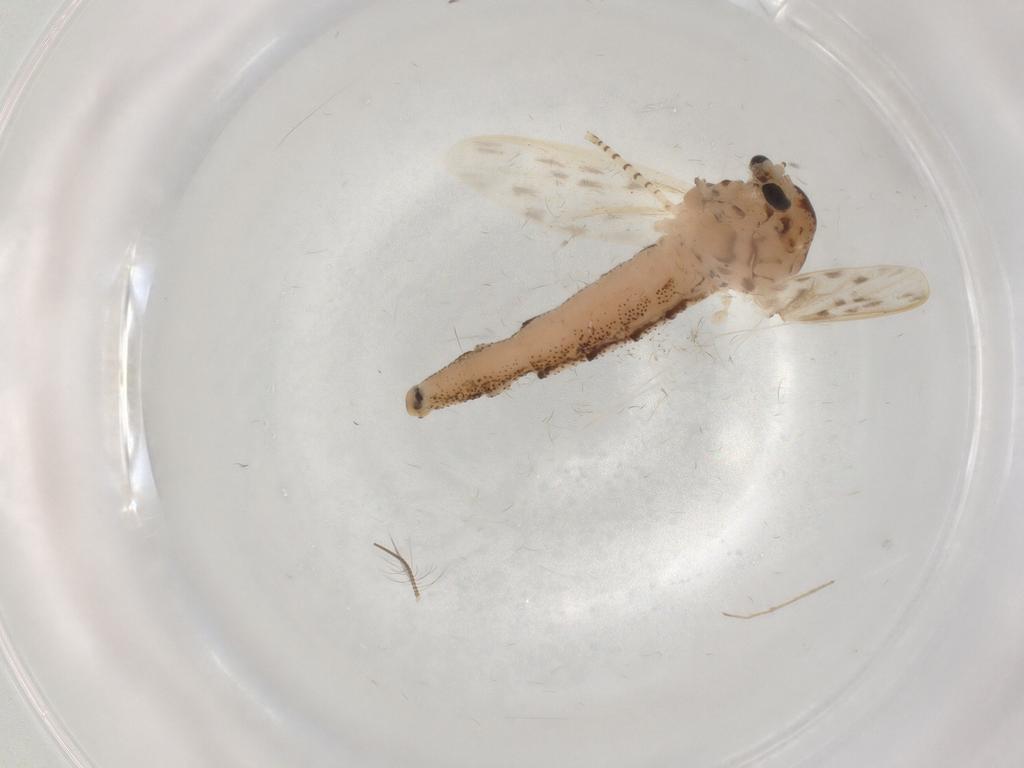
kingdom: Animalia
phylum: Arthropoda
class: Insecta
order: Diptera
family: Chaoboridae
